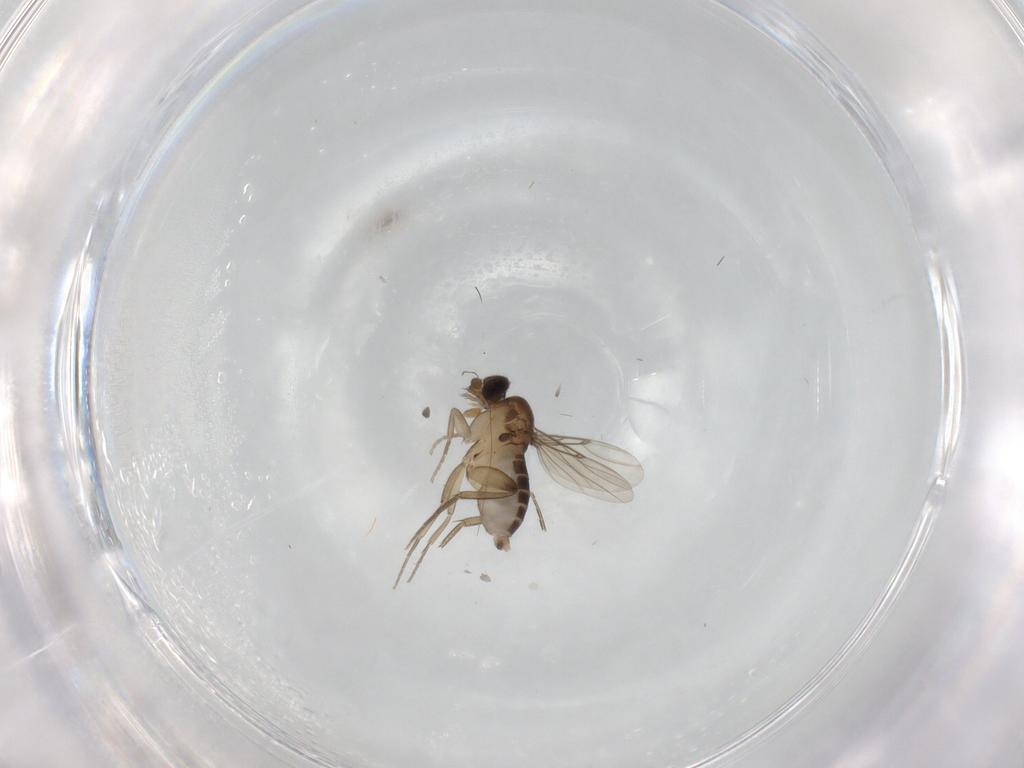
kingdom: Animalia
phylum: Arthropoda
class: Insecta
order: Diptera
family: Phoridae
